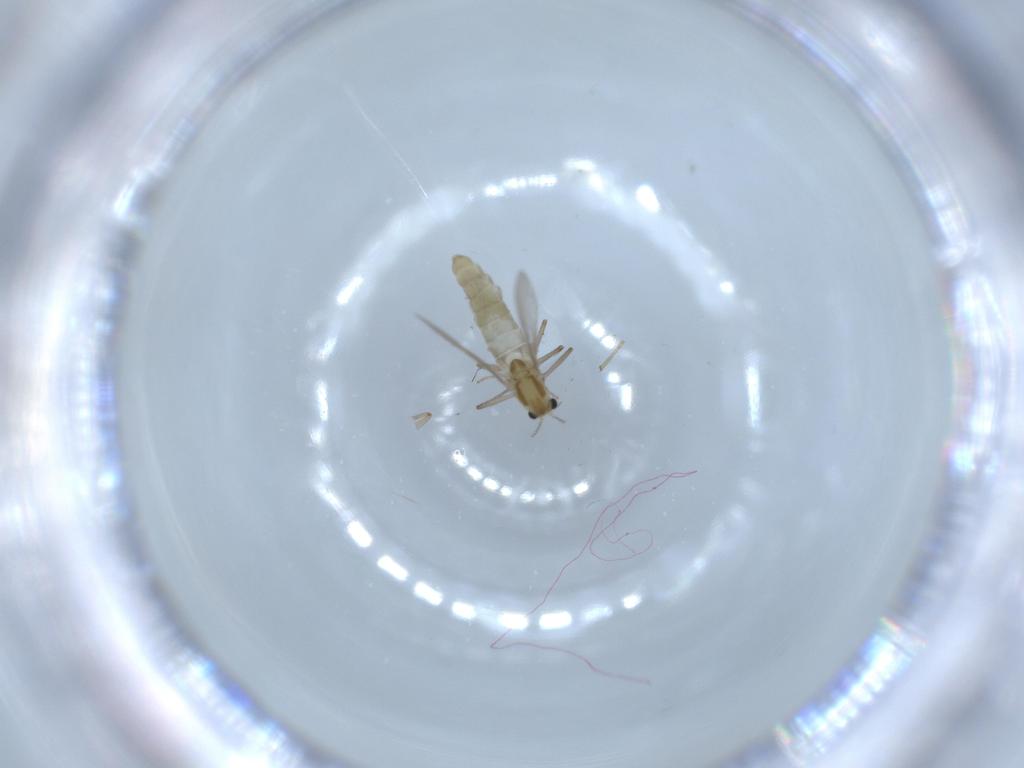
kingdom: Animalia
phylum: Arthropoda
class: Insecta
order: Diptera
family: Chironomidae
